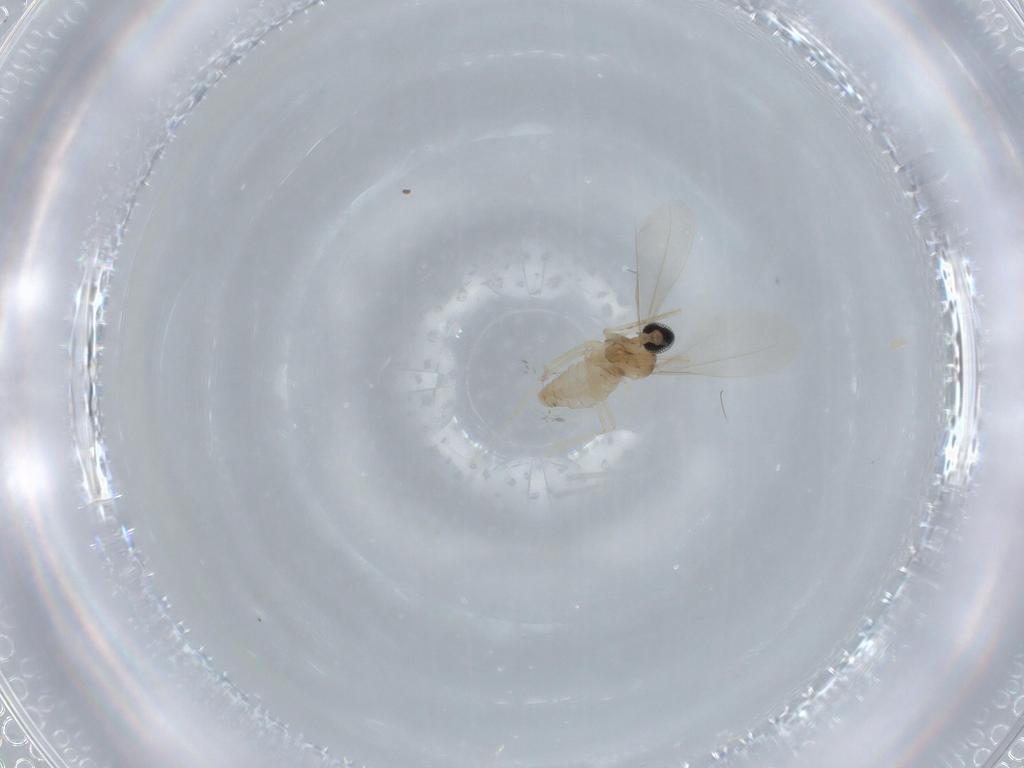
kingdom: Animalia
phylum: Arthropoda
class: Insecta
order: Diptera
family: Cecidomyiidae
